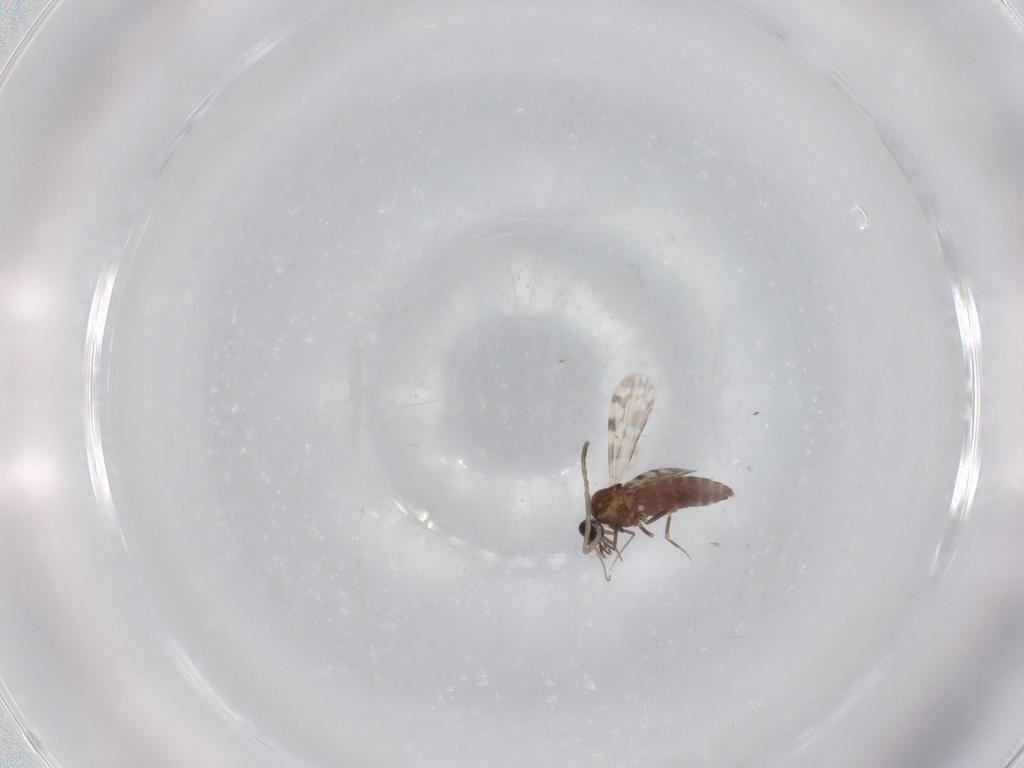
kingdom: Animalia
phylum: Arthropoda
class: Insecta
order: Diptera
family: Ceratopogonidae
